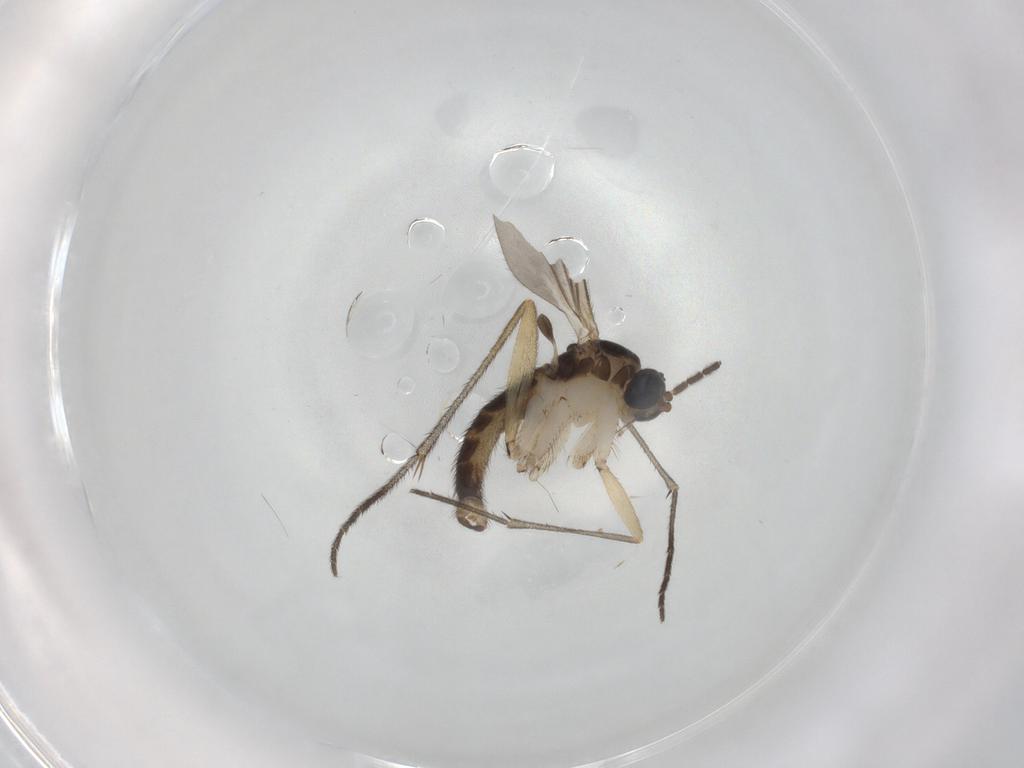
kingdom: Animalia
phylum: Arthropoda
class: Insecta
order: Diptera
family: Sciaridae
